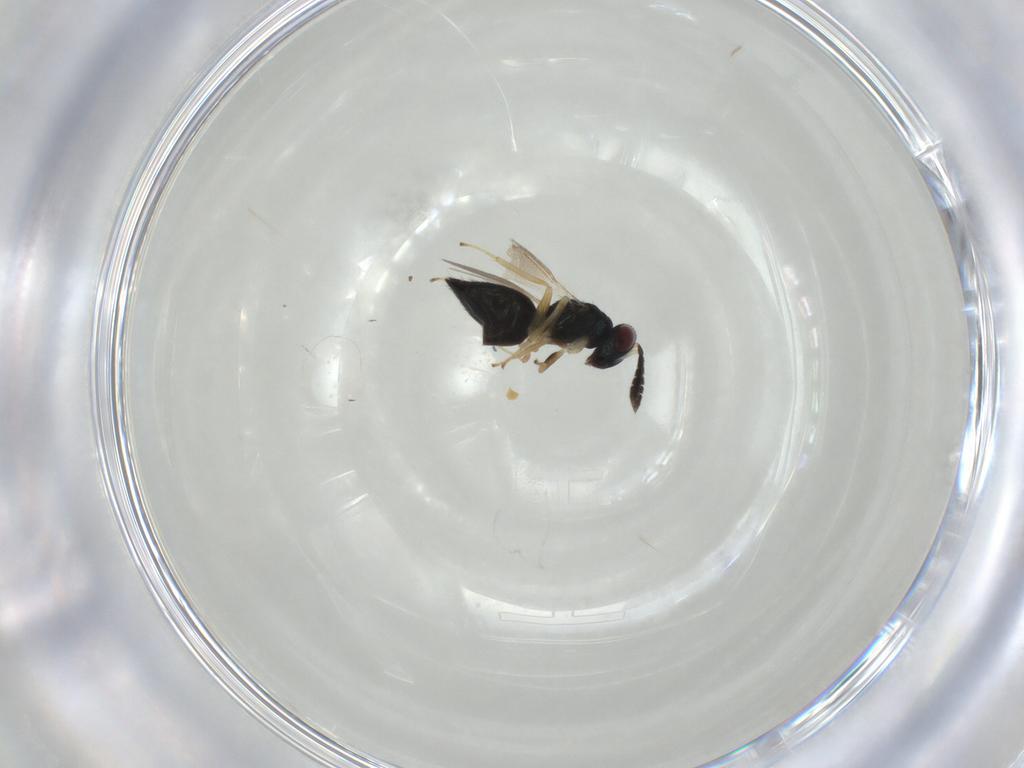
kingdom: Animalia
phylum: Arthropoda
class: Insecta
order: Hymenoptera
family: Eulophidae
